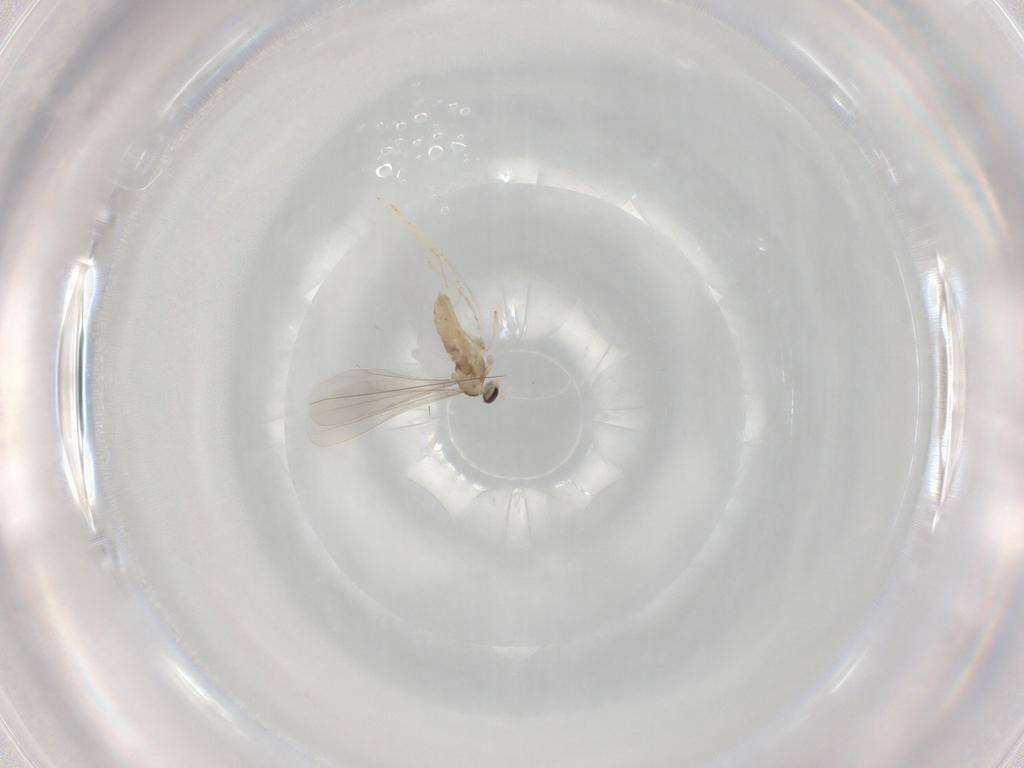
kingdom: Animalia
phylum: Arthropoda
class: Insecta
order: Diptera
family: Cecidomyiidae
